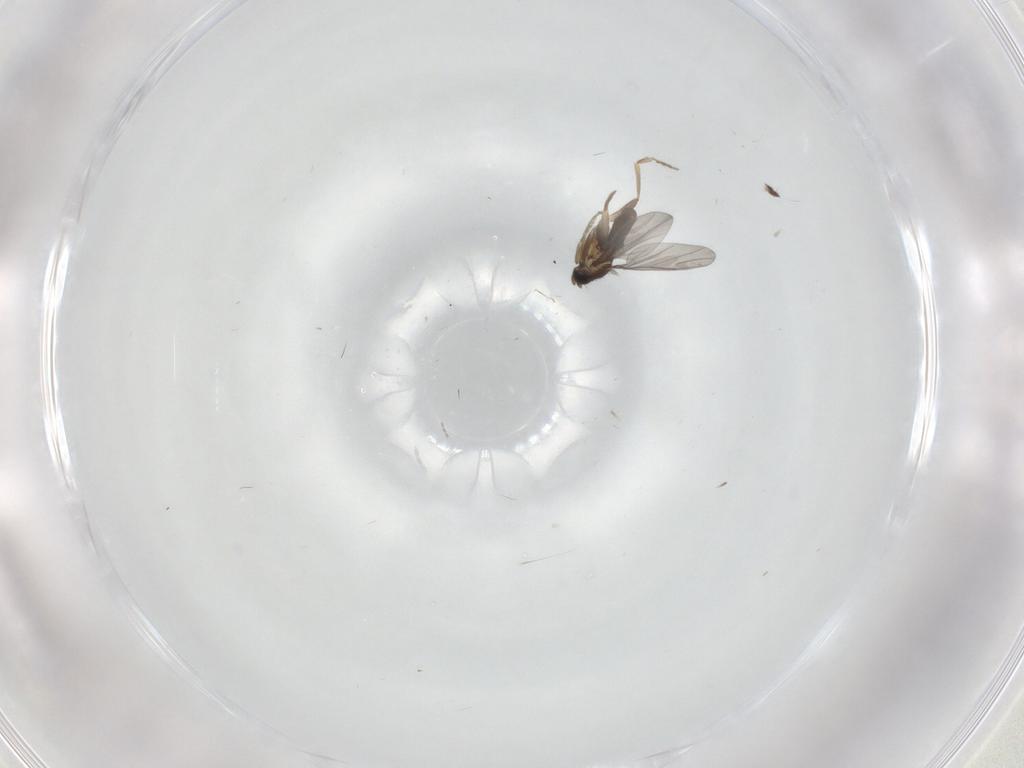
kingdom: Animalia
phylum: Arthropoda
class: Insecta
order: Diptera
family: Cecidomyiidae
